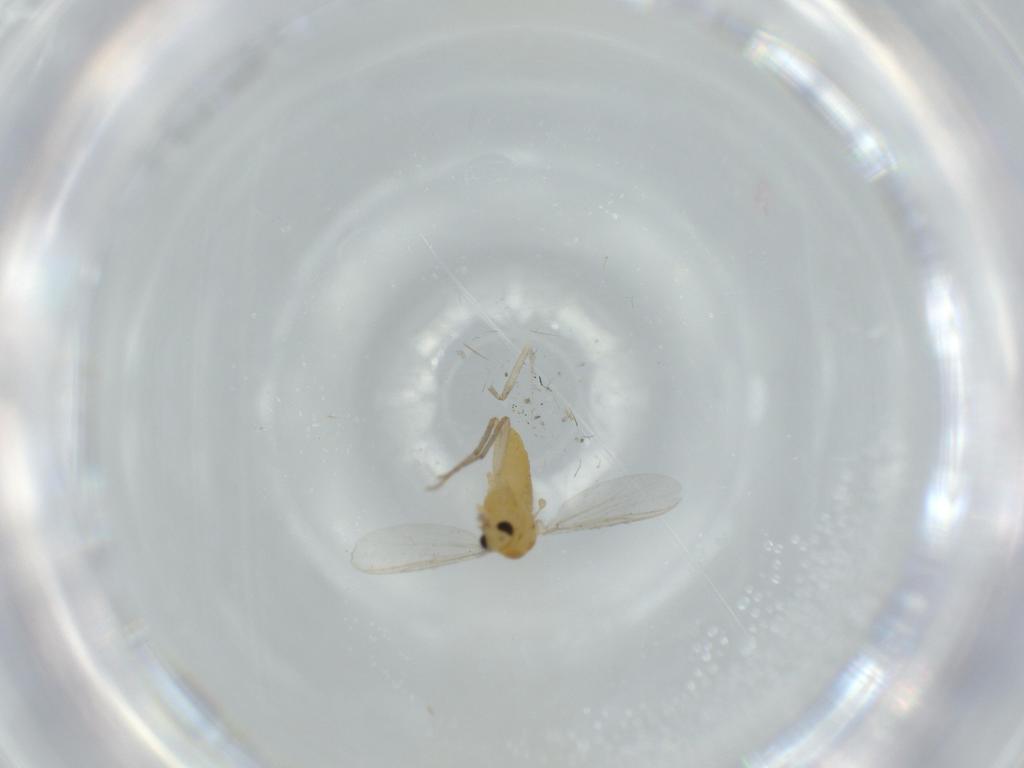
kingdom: Animalia
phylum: Arthropoda
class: Insecta
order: Diptera
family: Chironomidae
